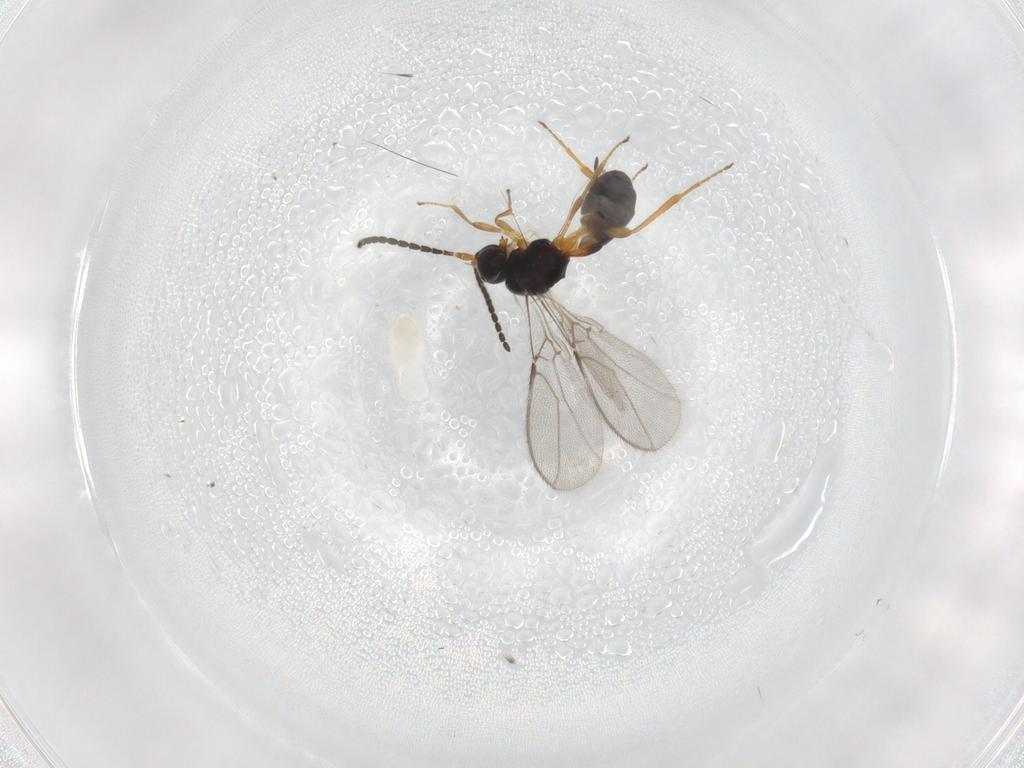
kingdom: Animalia
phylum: Arthropoda
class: Insecta
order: Hymenoptera
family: Braconidae
